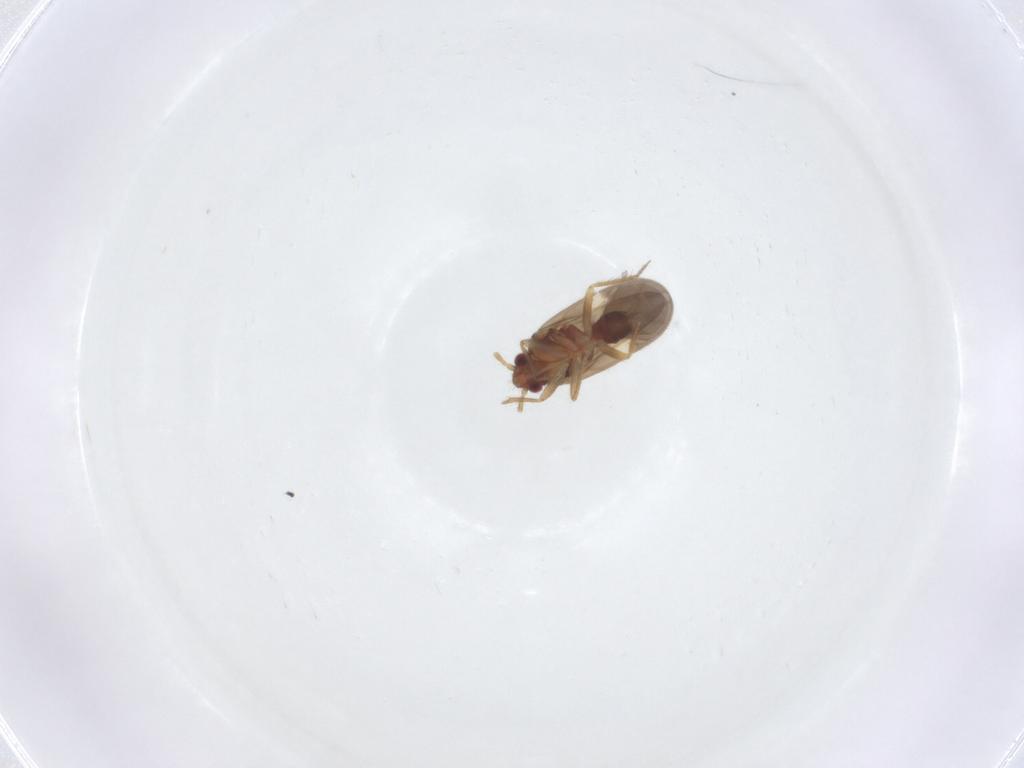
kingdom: Animalia
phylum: Arthropoda
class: Insecta
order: Hemiptera
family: Ceratocombidae
